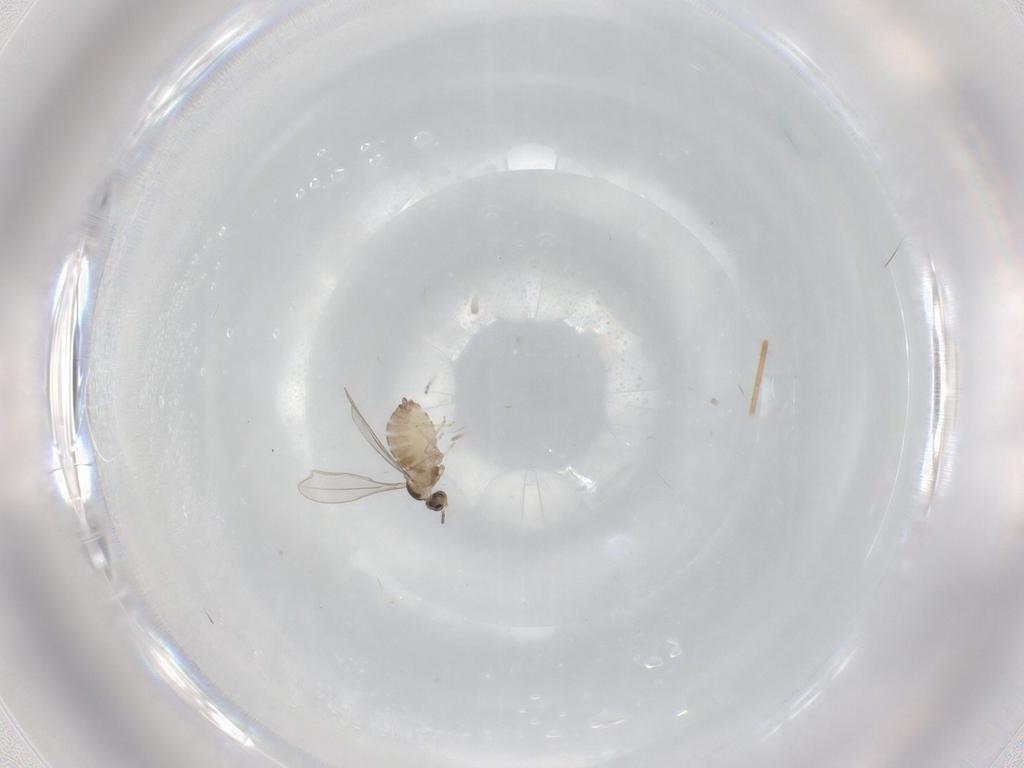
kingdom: Animalia
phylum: Arthropoda
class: Insecta
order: Diptera
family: Chironomidae
